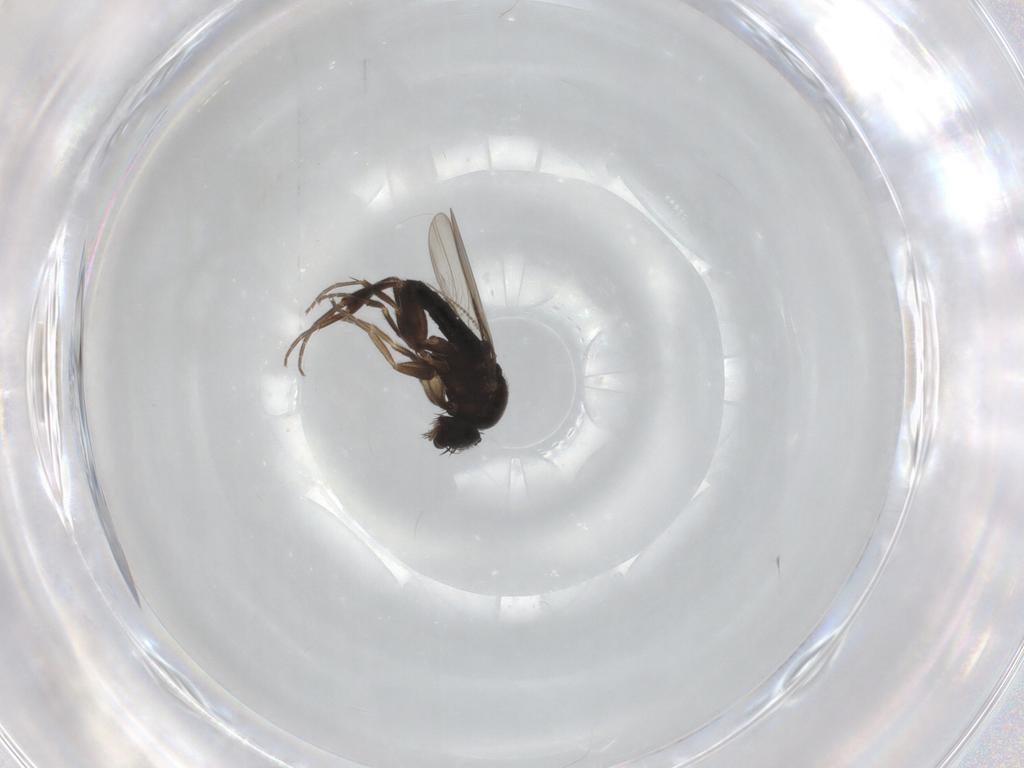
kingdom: Animalia
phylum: Arthropoda
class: Insecta
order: Diptera
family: Phoridae
